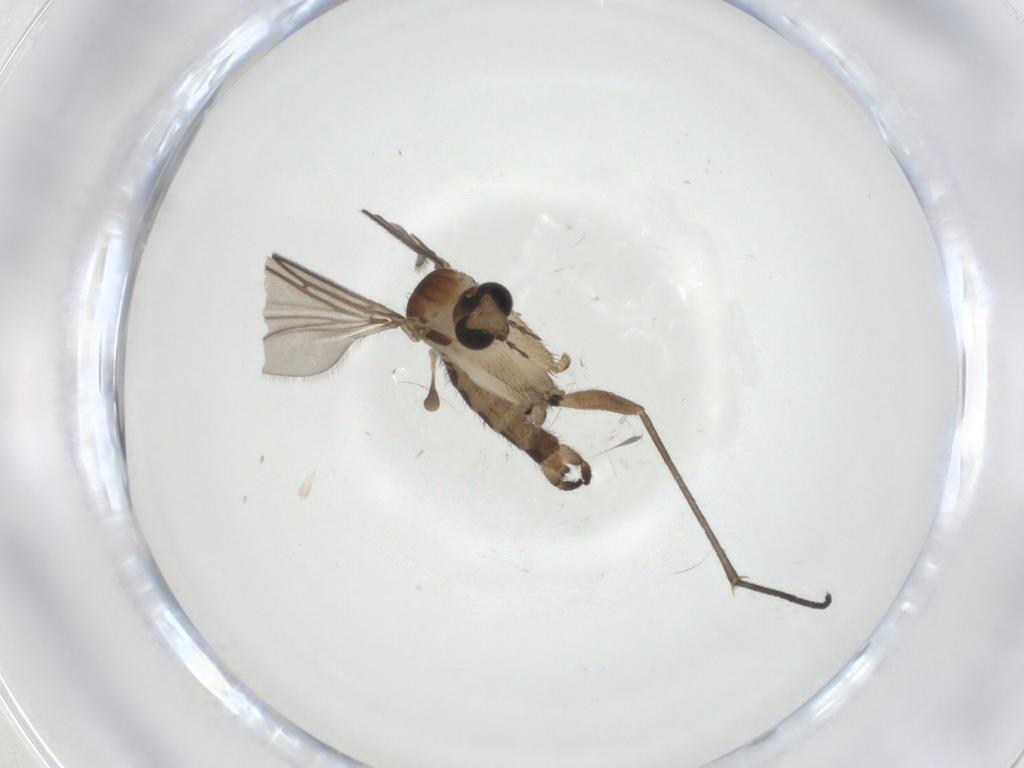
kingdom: Animalia
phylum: Arthropoda
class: Insecta
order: Diptera
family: Sciaridae
